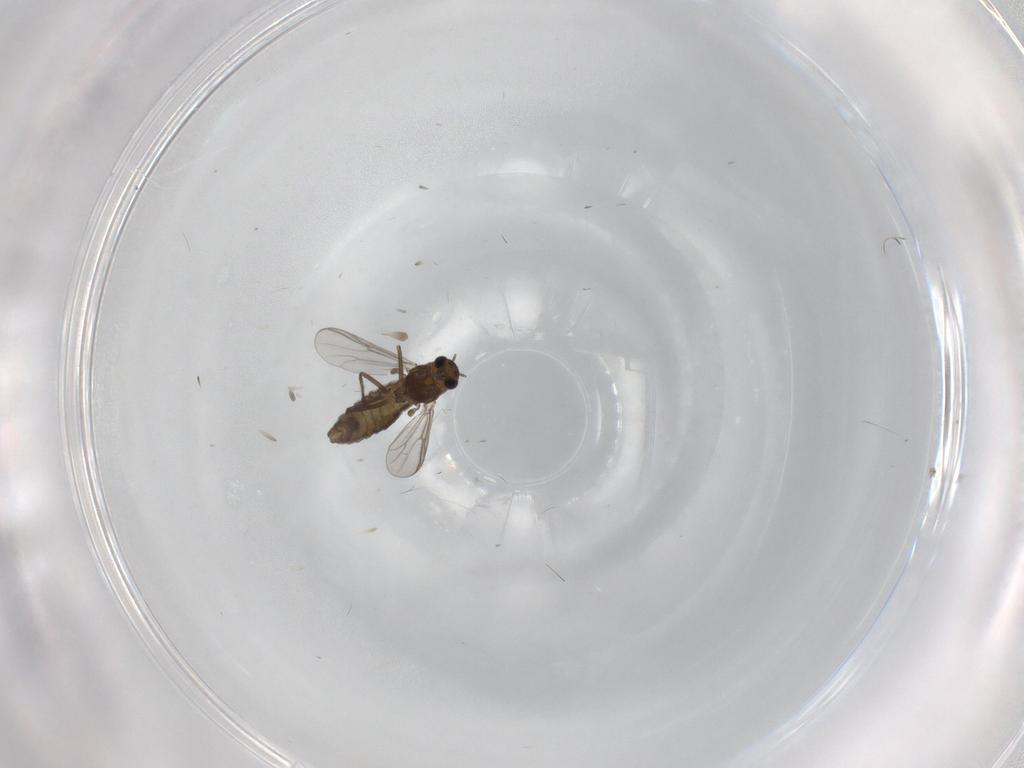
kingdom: Animalia
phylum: Arthropoda
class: Insecta
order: Diptera
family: Chironomidae
